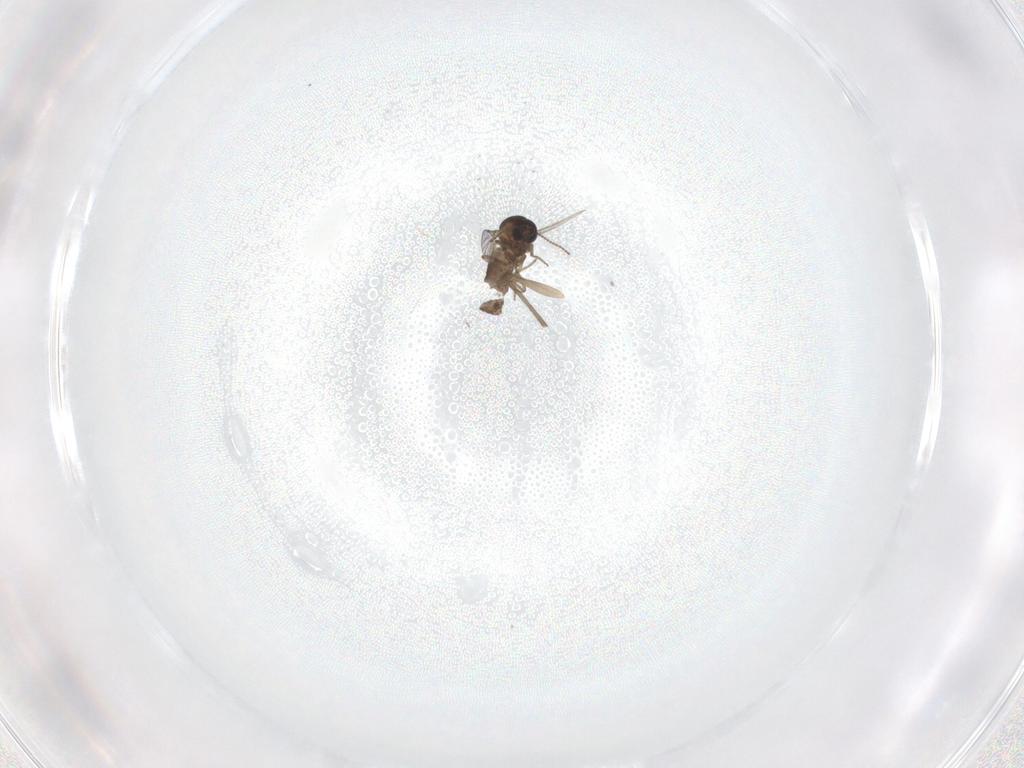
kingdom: Animalia
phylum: Arthropoda
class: Insecta
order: Diptera
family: Ceratopogonidae
